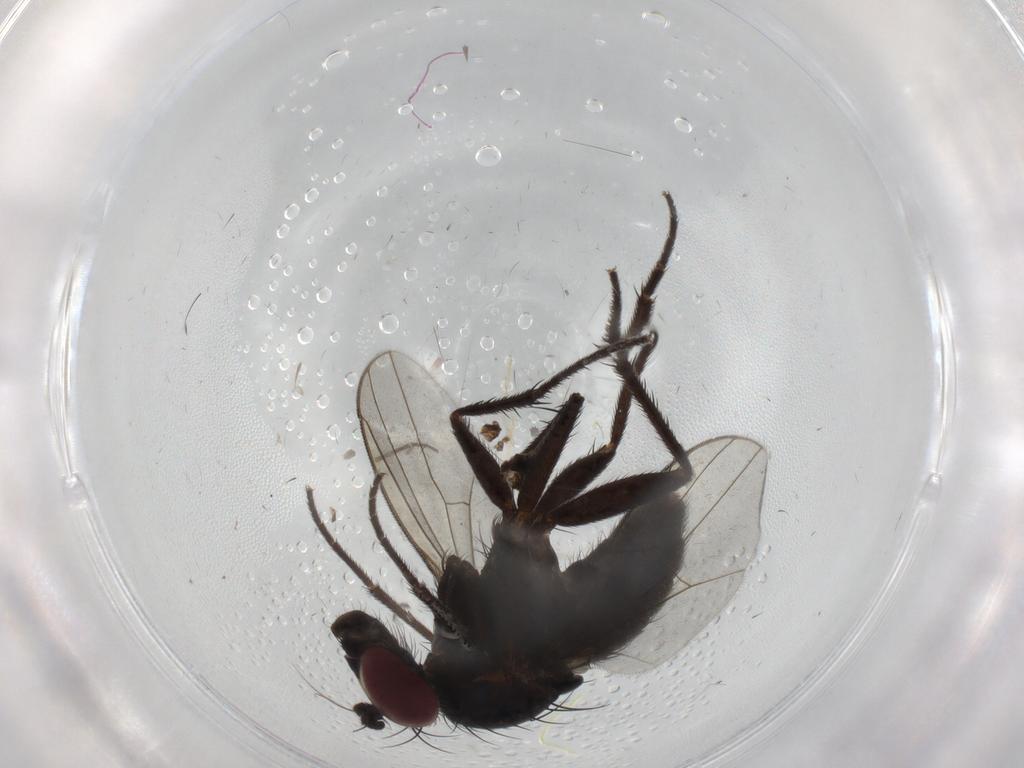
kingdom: Animalia
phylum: Arthropoda
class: Insecta
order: Diptera
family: Dolichopodidae
